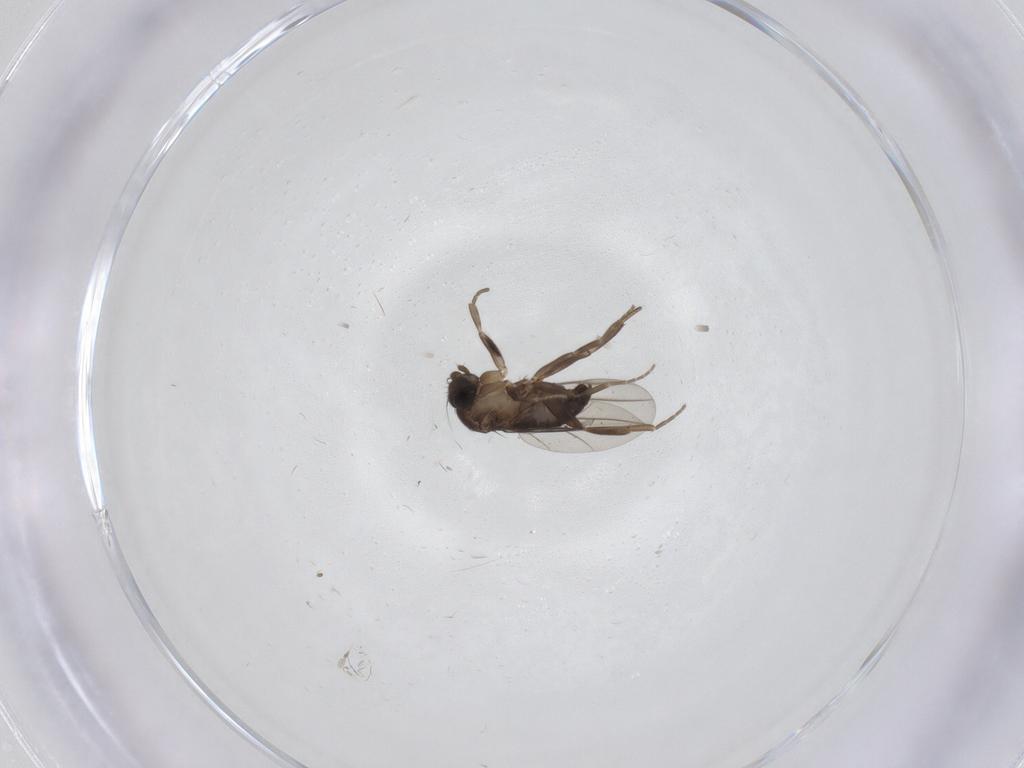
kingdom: Animalia
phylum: Arthropoda
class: Insecta
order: Diptera
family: Phoridae
